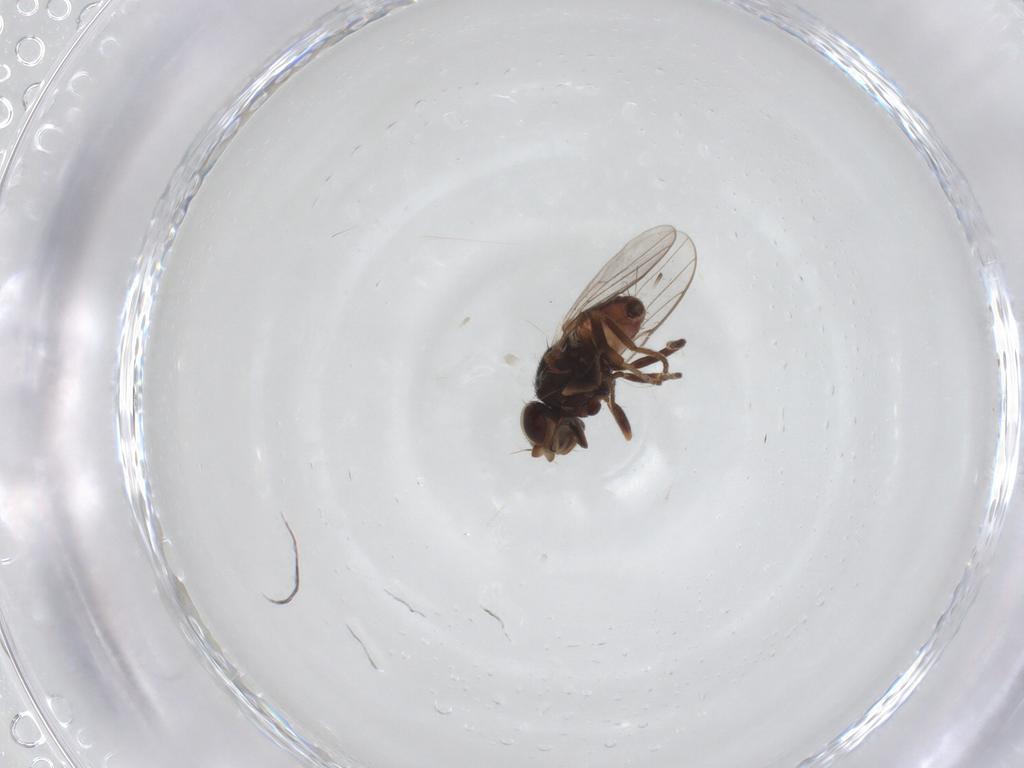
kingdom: Animalia
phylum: Arthropoda
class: Insecta
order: Diptera
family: Chloropidae
